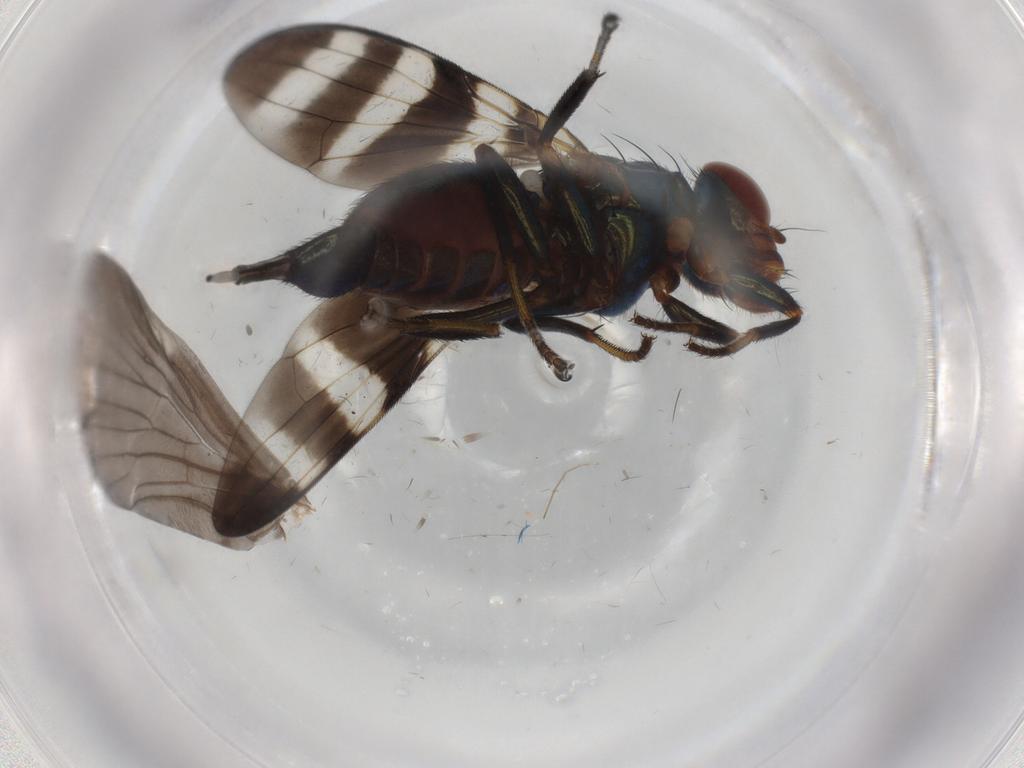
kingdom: Animalia
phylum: Arthropoda
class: Insecta
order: Diptera
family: Ulidiidae
